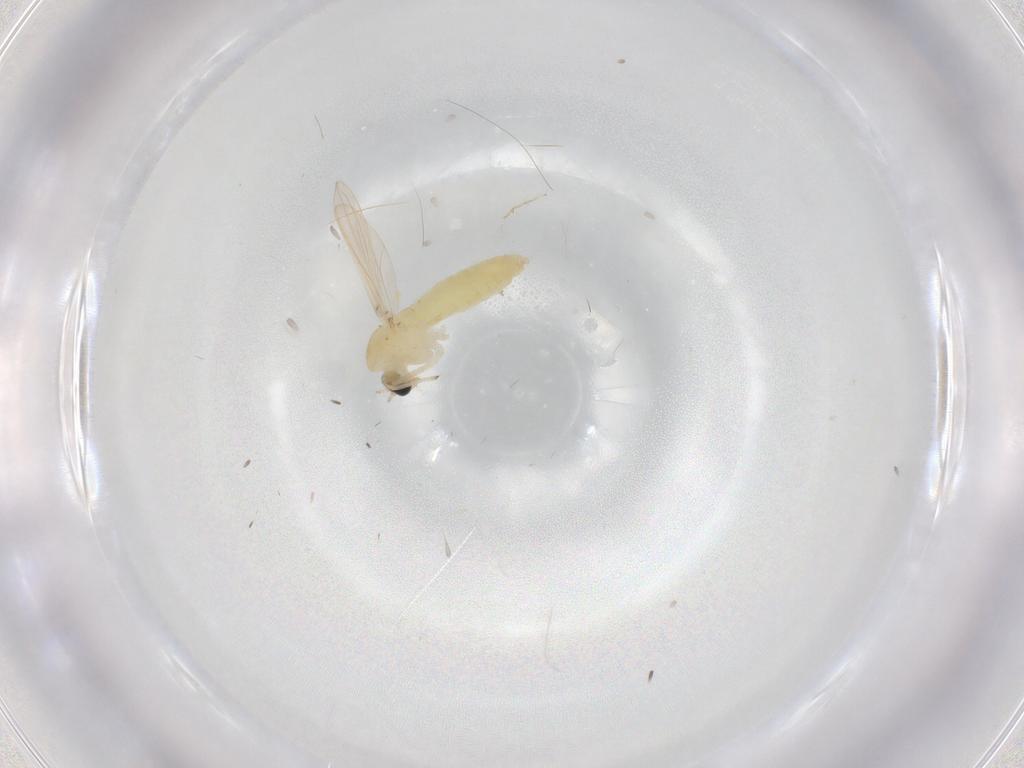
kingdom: Animalia
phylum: Arthropoda
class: Insecta
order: Diptera
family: Chironomidae
